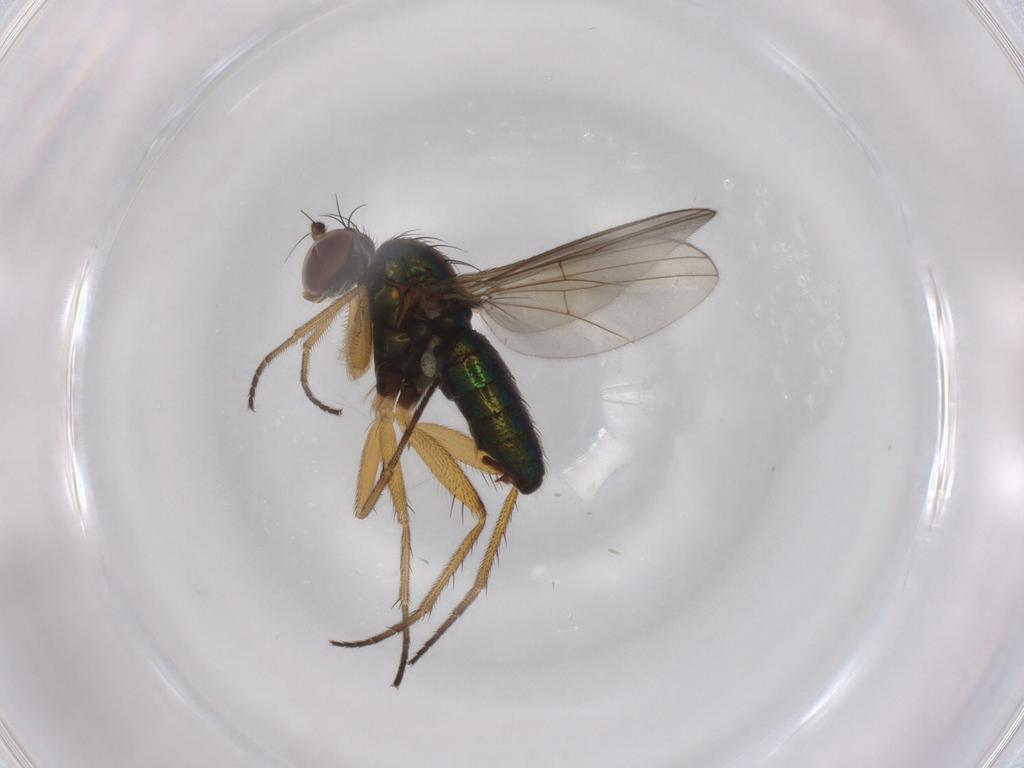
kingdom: Animalia
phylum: Arthropoda
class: Insecta
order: Diptera
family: Dolichopodidae
